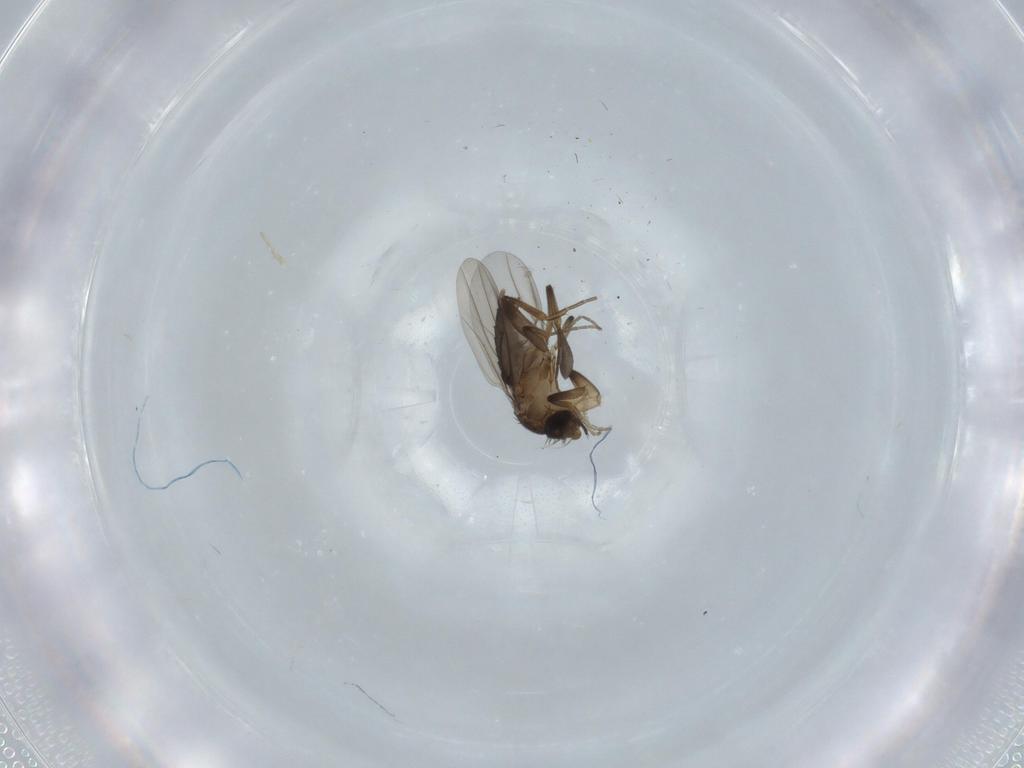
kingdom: Animalia
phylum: Arthropoda
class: Insecta
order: Diptera
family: Sciaridae
